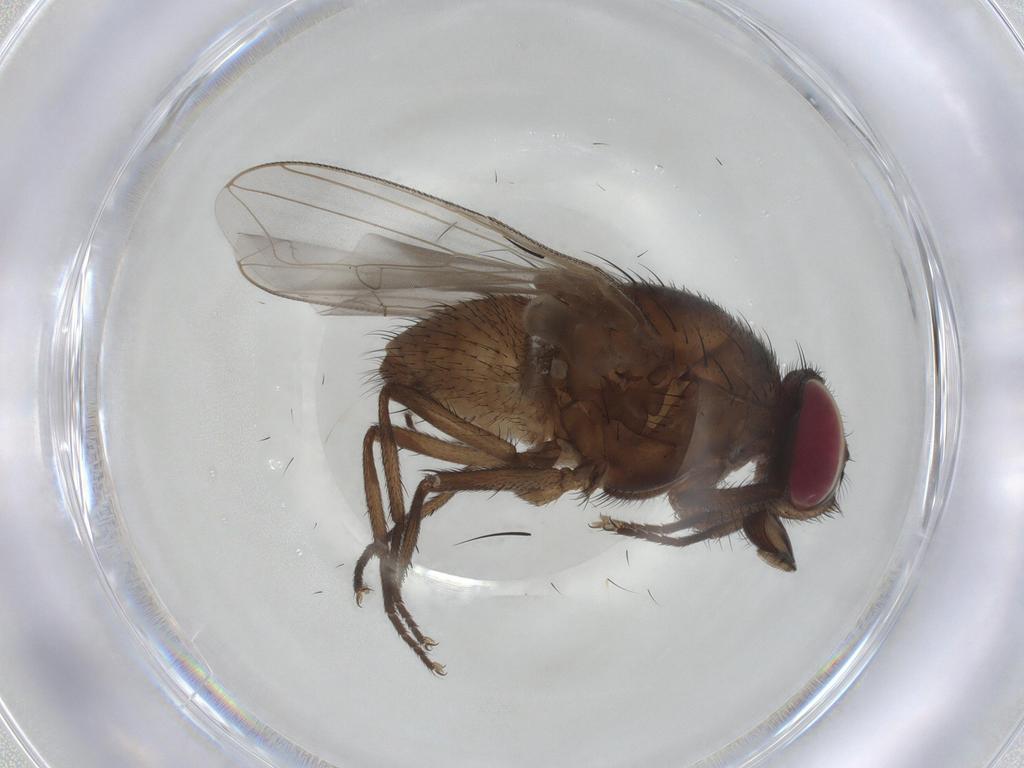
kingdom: Animalia
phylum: Arthropoda
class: Insecta
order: Diptera
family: Muscidae
